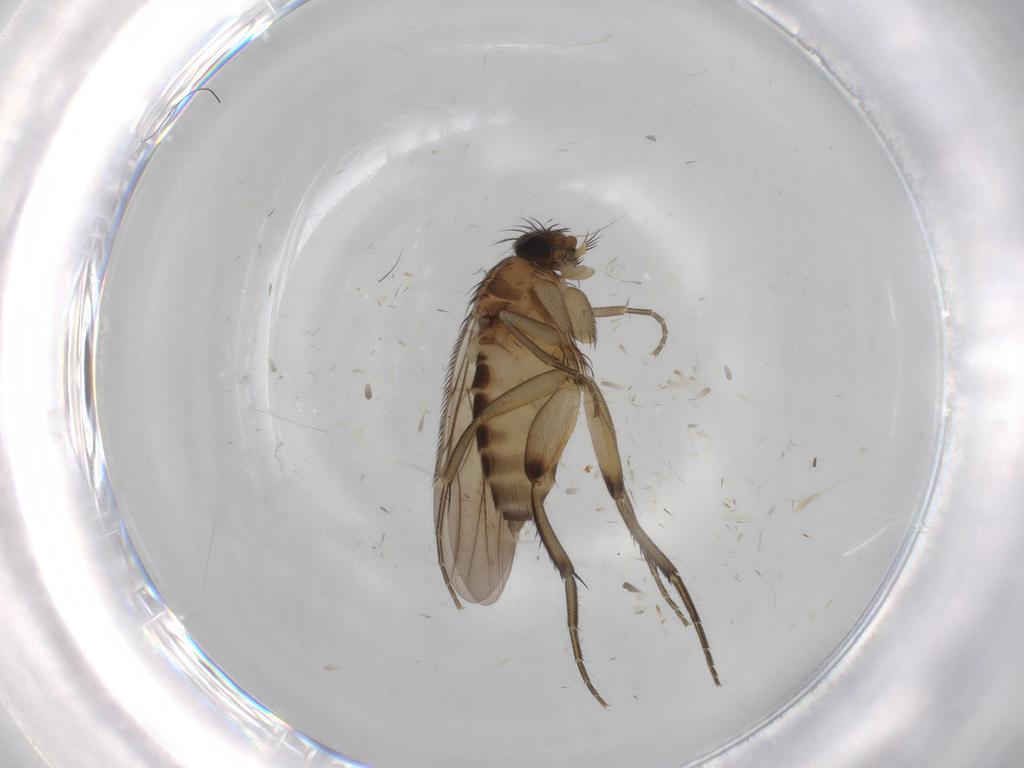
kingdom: Animalia
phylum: Arthropoda
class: Insecta
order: Diptera
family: Phoridae
